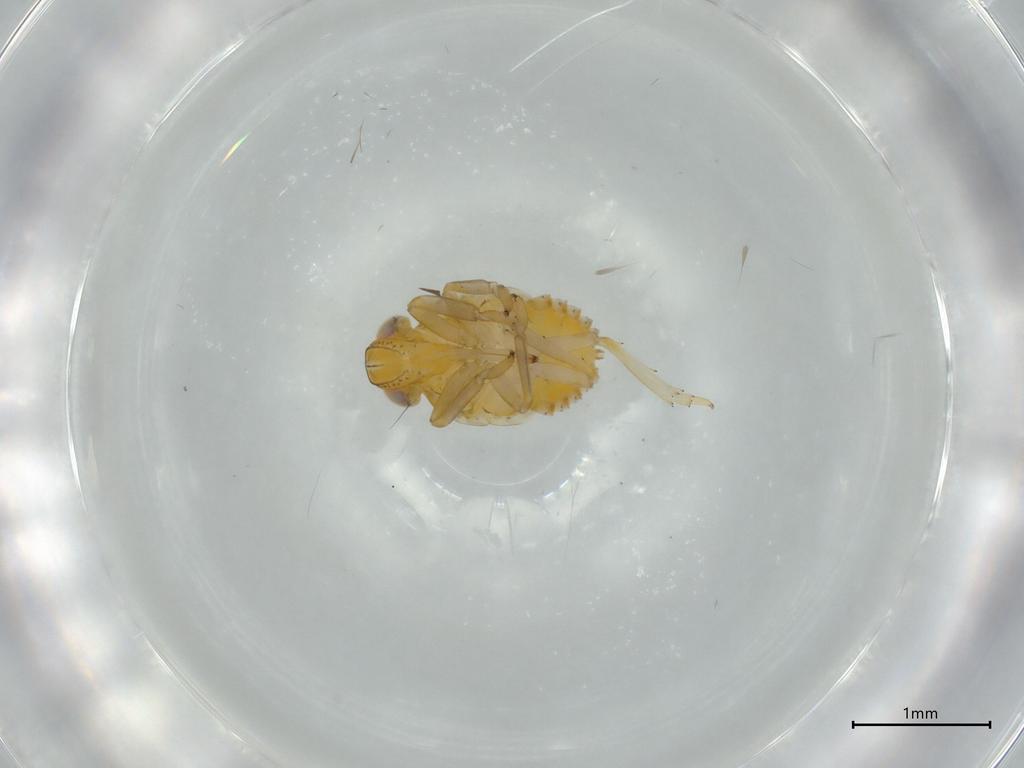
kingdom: Animalia
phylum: Arthropoda
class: Insecta
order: Hemiptera
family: Issidae
